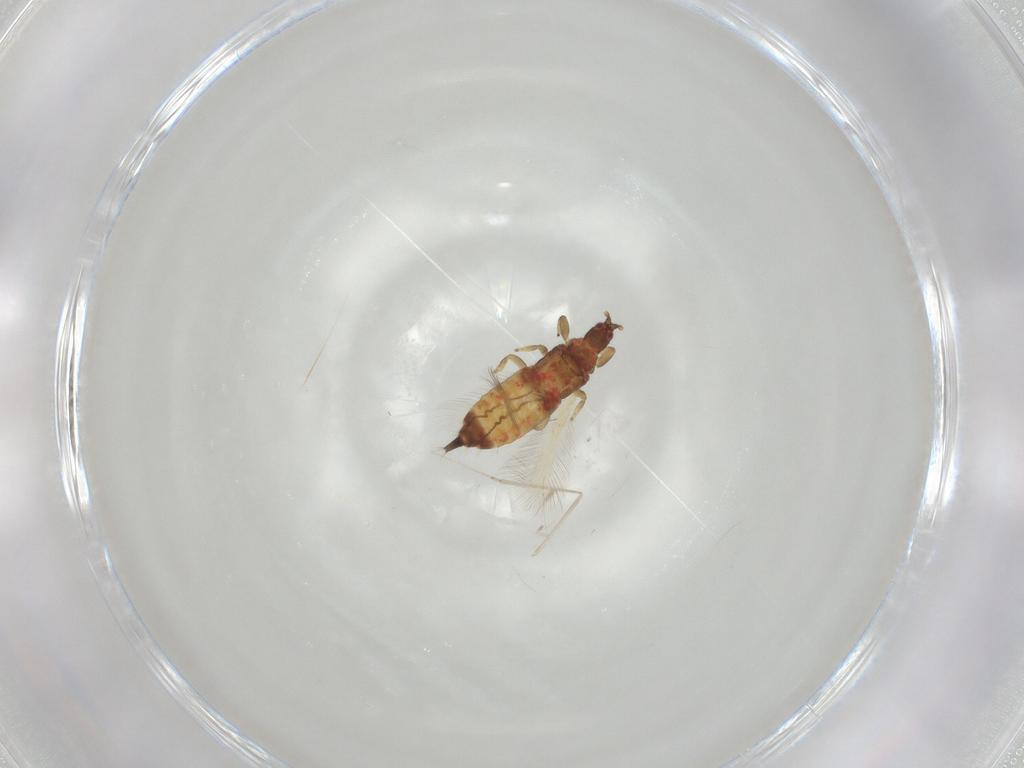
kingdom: Animalia
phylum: Arthropoda
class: Insecta
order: Thysanoptera
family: Phlaeothripidae
